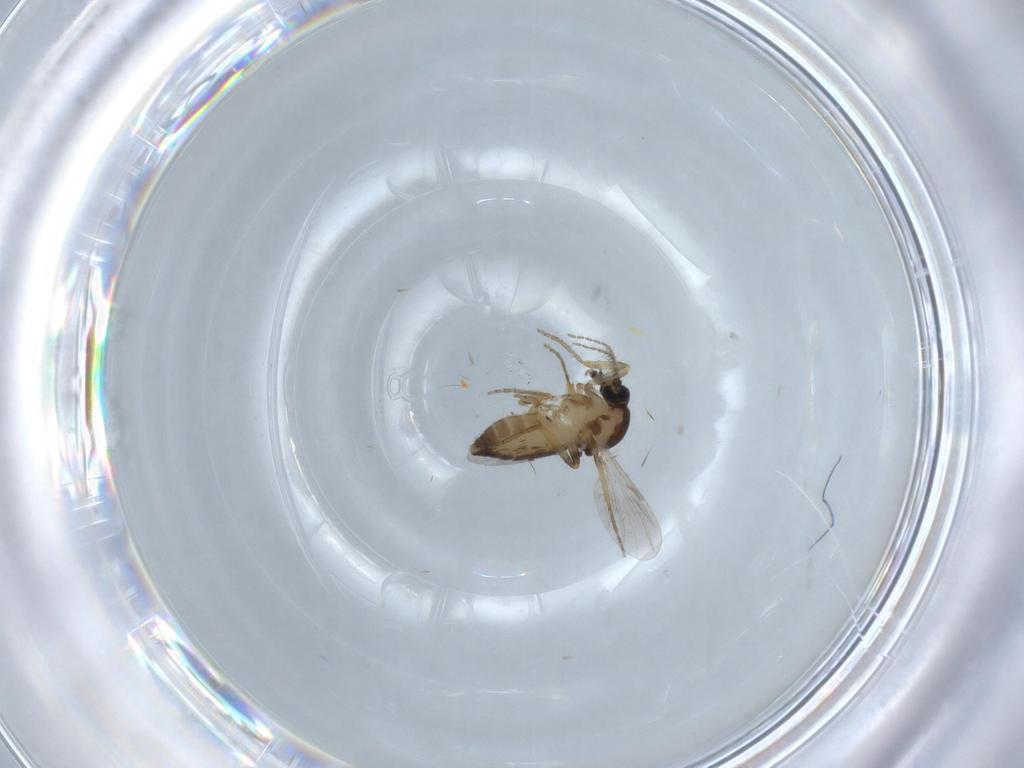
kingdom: Animalia
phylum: Arthropoda
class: Insecta
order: Diptera
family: Ceratopogonidae
